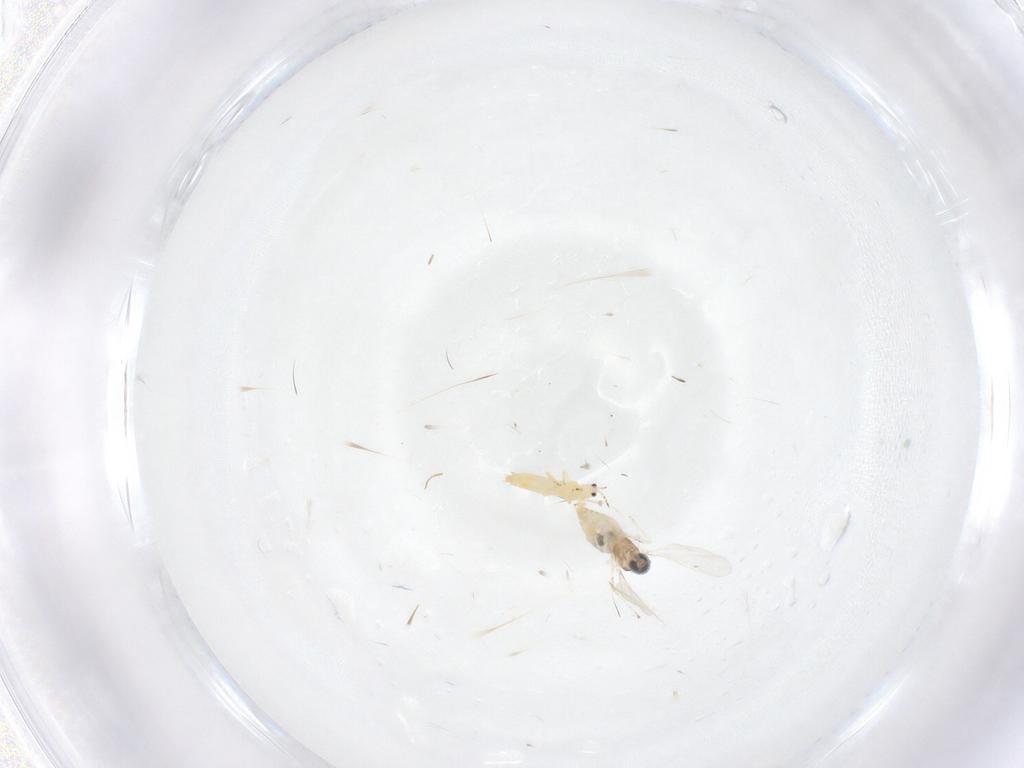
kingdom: Animalia
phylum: Arthropoda
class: Insecta
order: Diptera
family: Cecidomyiidae
